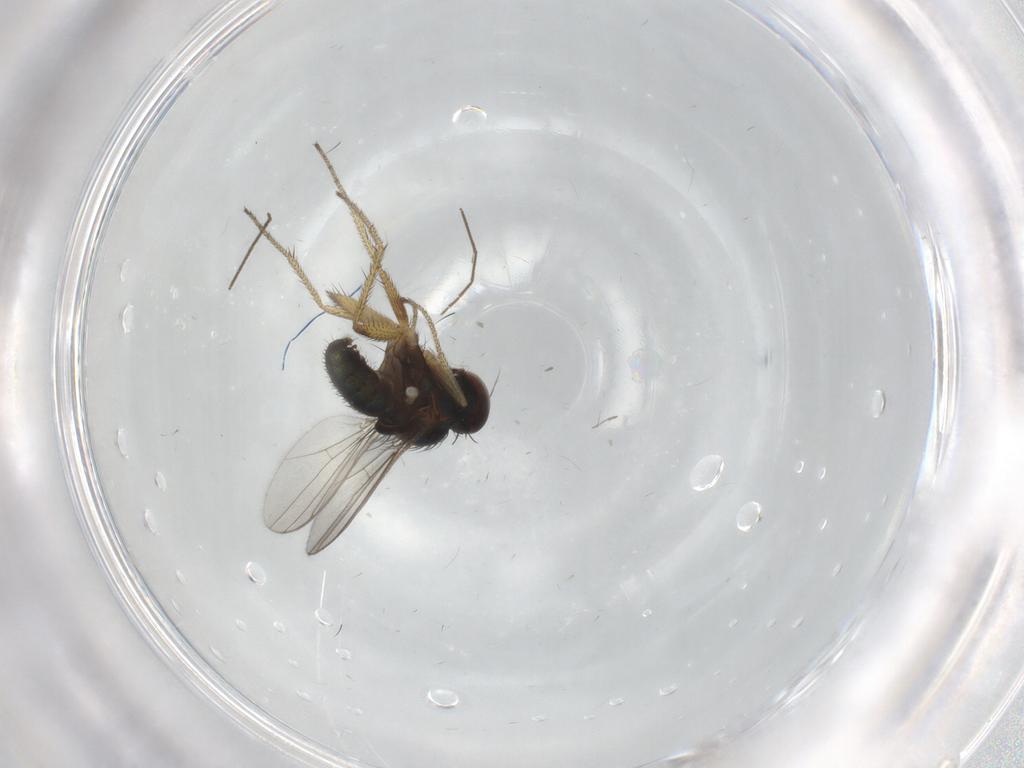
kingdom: Animalia
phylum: Arthropoda
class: Insecta
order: Diptera
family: Dolichopodidae
